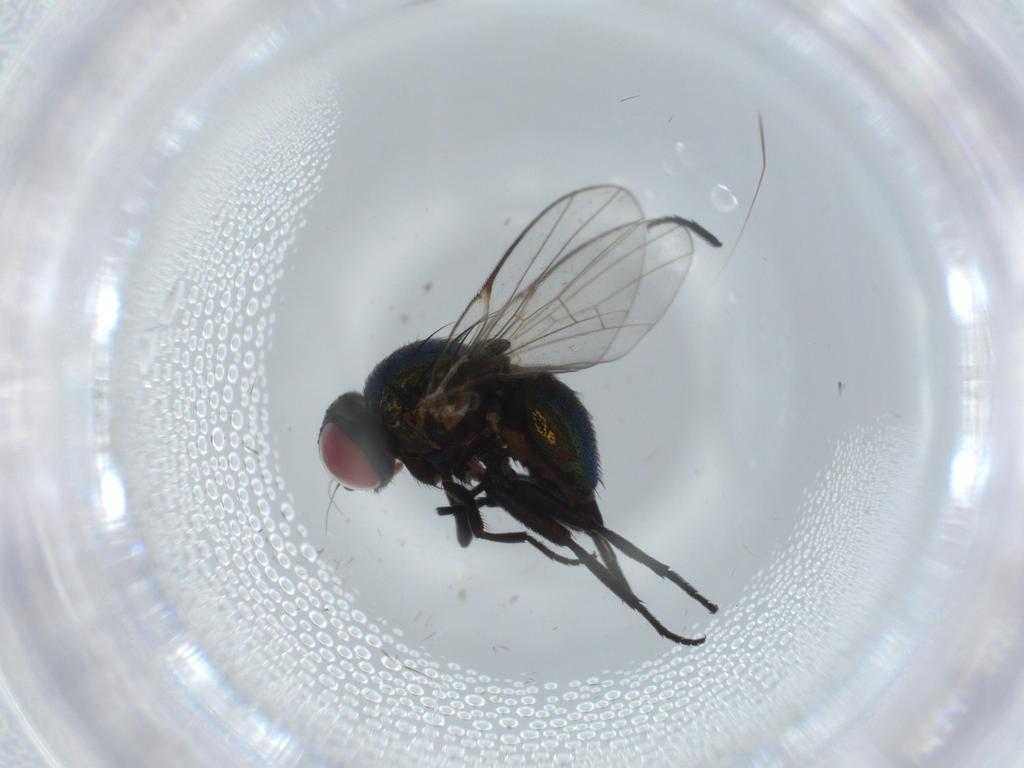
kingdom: Animalia
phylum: Arthropoda
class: Insecta
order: Diptera
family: Agromyzidae
